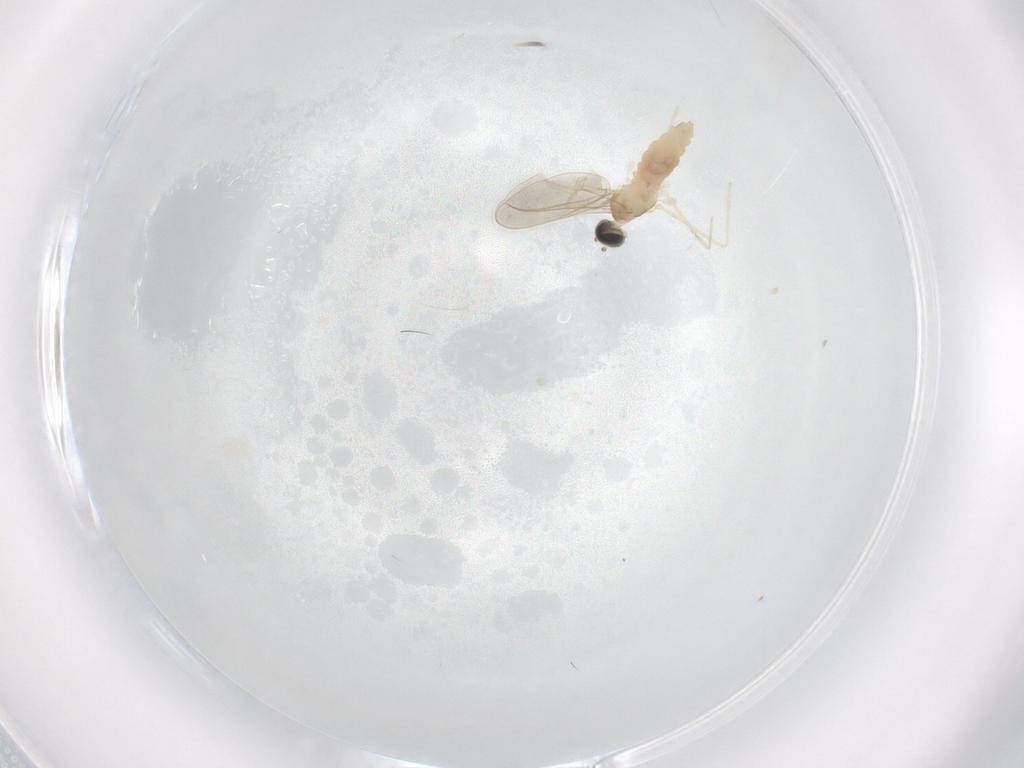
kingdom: Animalia
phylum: Arthropoda
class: Insecta
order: Diptera
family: Cecidomyiidae
